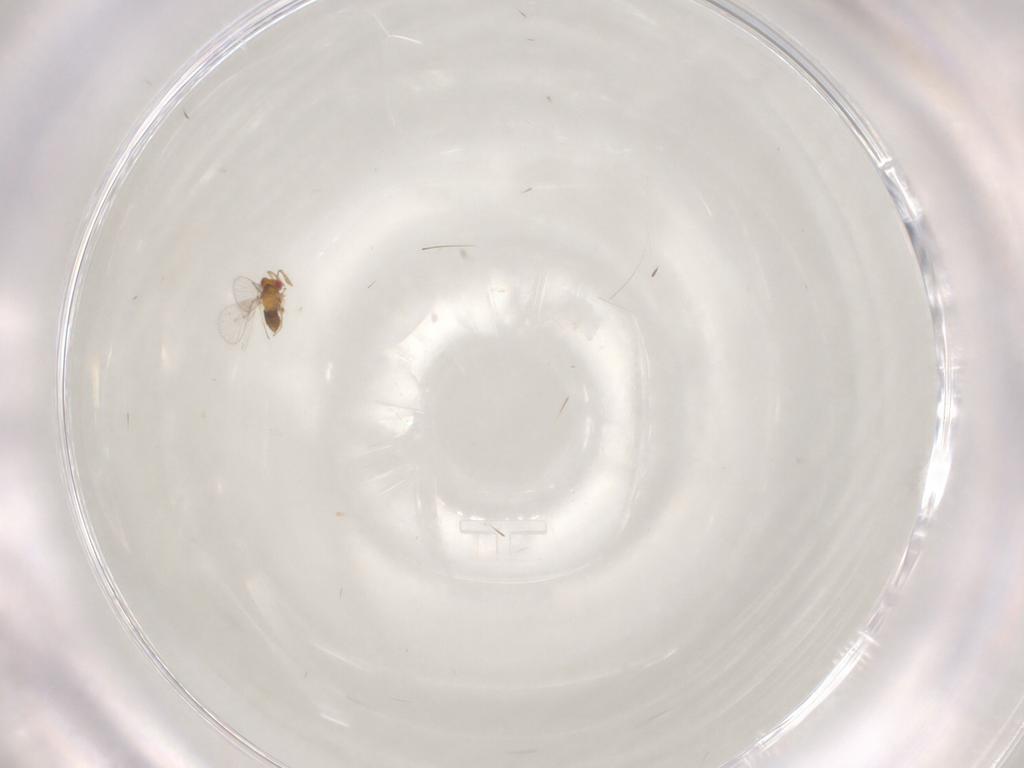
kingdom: Animalia
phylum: Arthropoda
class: Insecta
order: Hymenoptera
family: Trichogrammatidae
